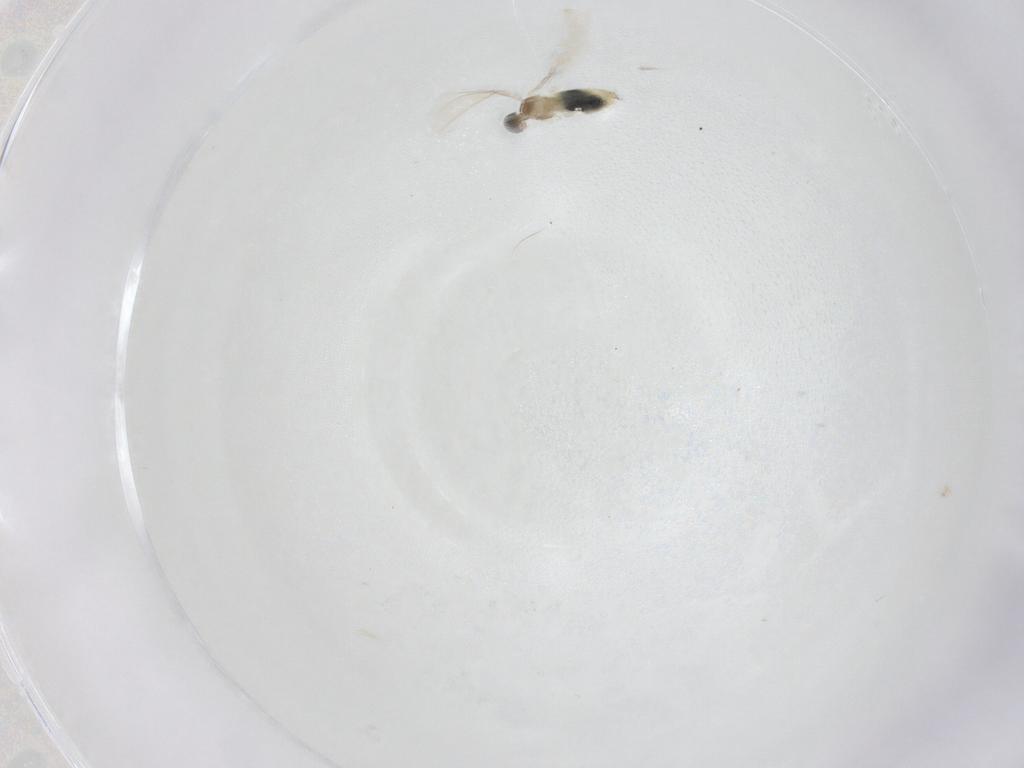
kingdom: Animalia
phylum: Arthropoda
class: Insecta
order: Diptera
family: Cecidomyiidae
